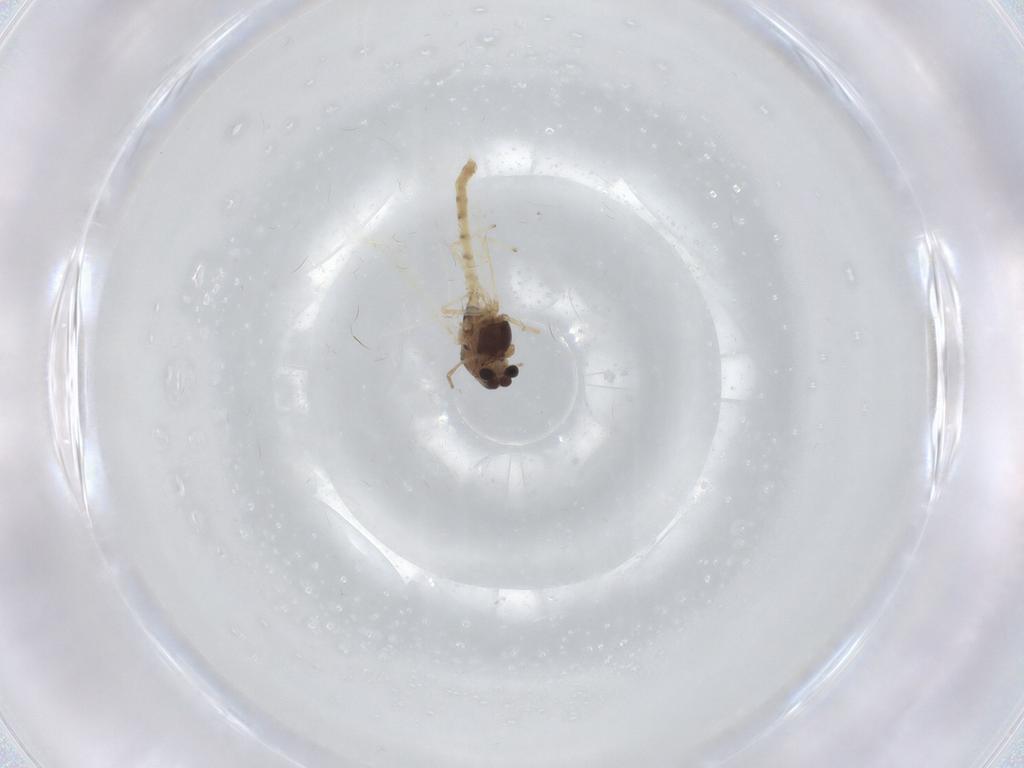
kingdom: Animalia
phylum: Arthropoda
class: Insecta
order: Diptera
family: Chironomidae
